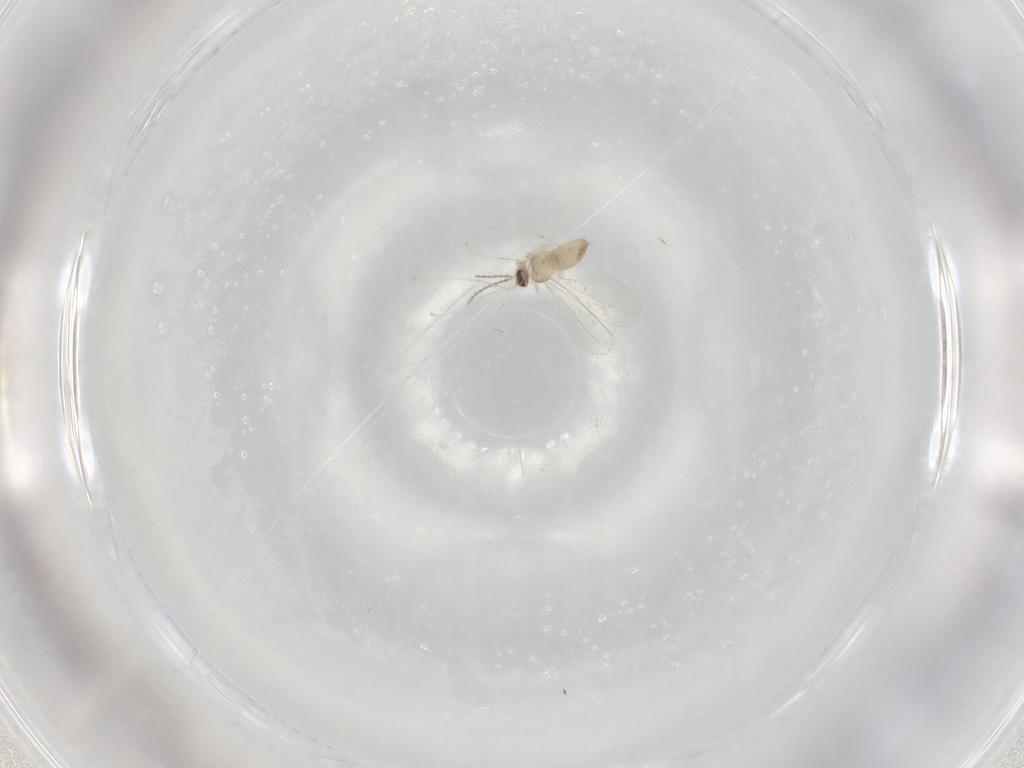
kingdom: Animalia
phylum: Arthropoda
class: Insecta
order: Diptera
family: Cecidomyiidae
